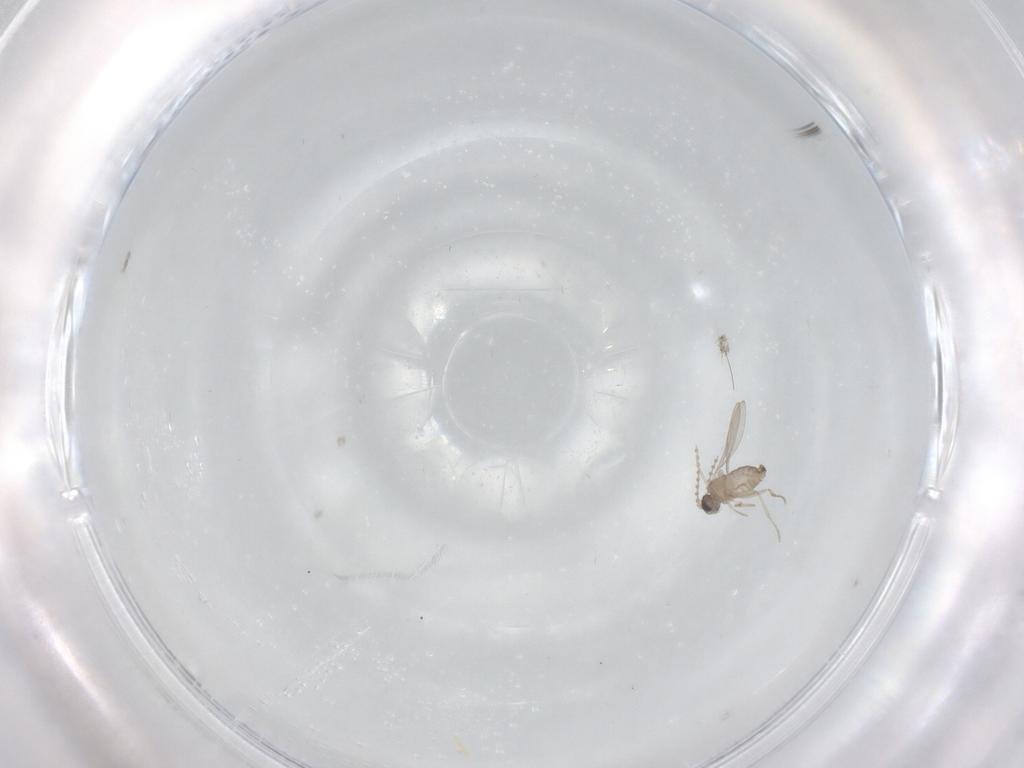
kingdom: Animalia
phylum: Arthropoda
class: Insecta
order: Diptera
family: Cecidomyiidae
